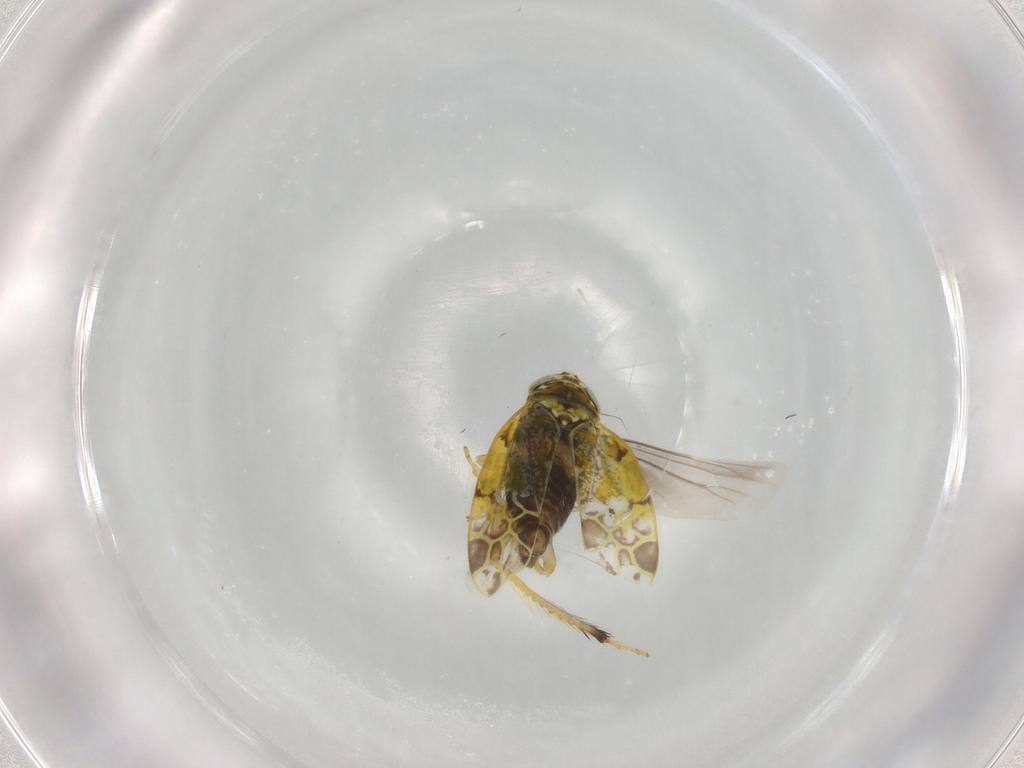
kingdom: Animalia
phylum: Arthropoda
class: Insecta
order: Hemiptera
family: Cicadellidae
